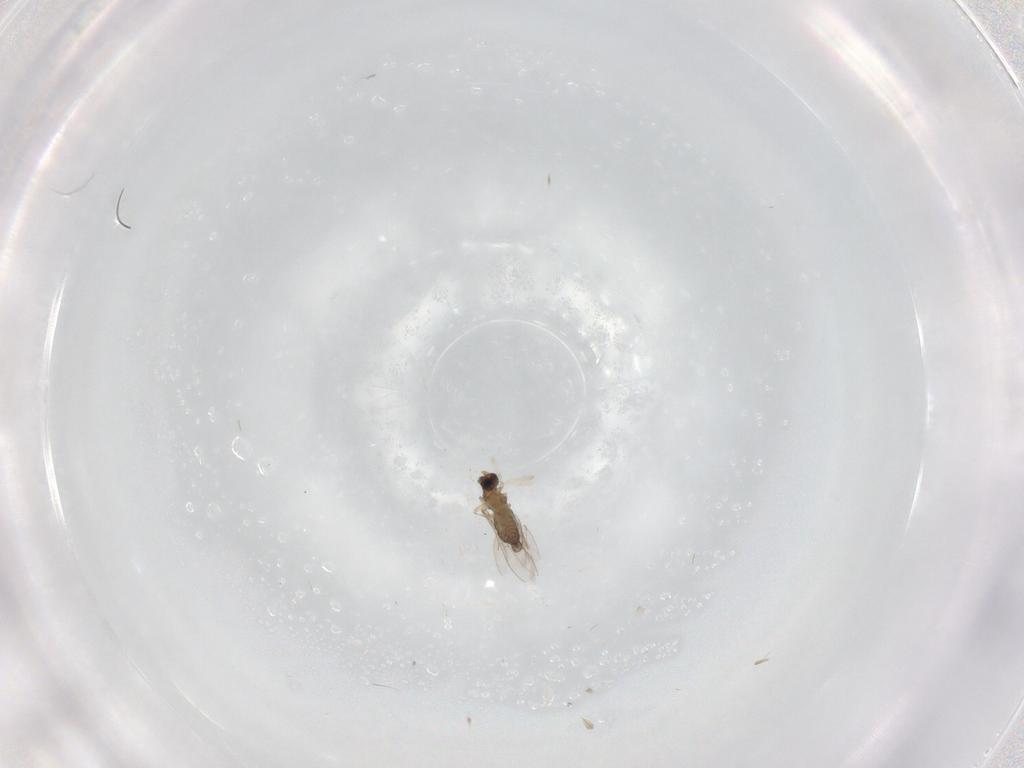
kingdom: Animalia
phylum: Arthropoda
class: Insecta
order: Diptera
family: Cecidomyiidae
